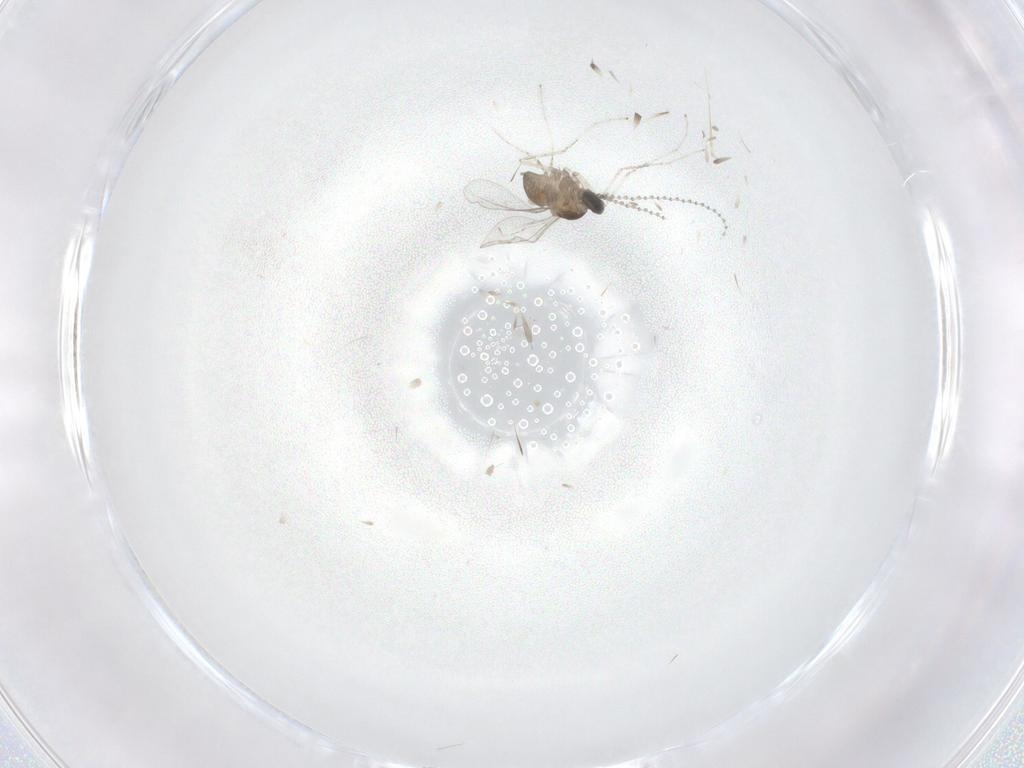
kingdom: Animalia
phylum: Arthropoda
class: Insecta
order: Diptera
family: Cecidomyiidae
